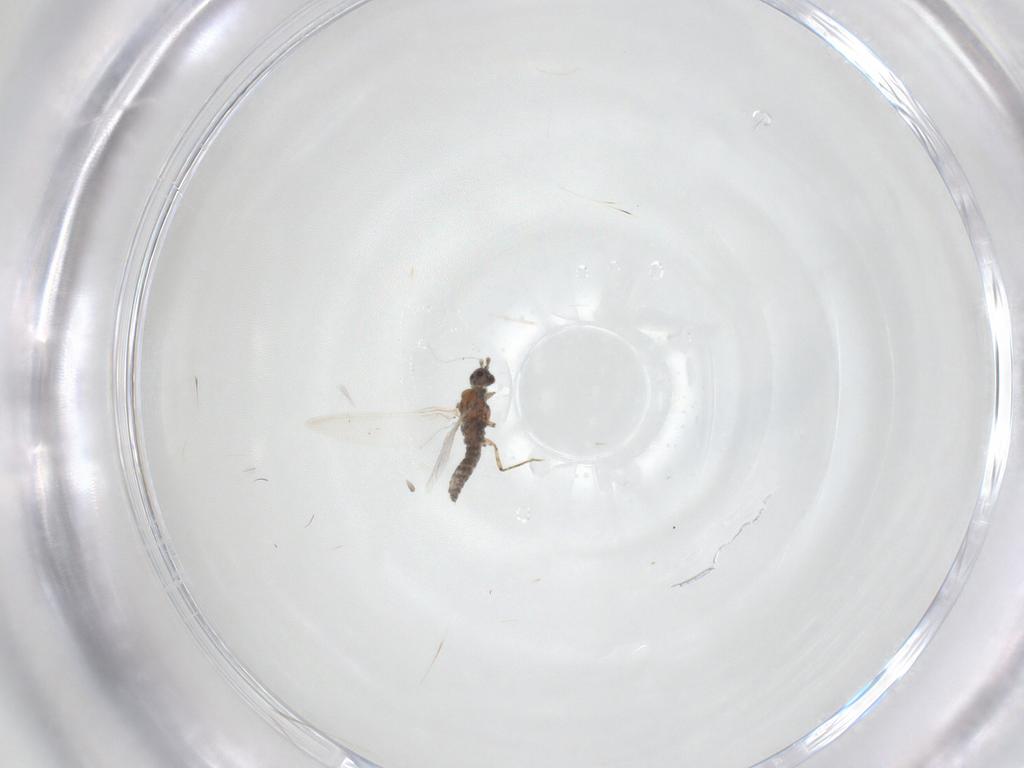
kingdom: Animalia
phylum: Arthropoda
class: Insecta
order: Diptera
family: Phoridae
